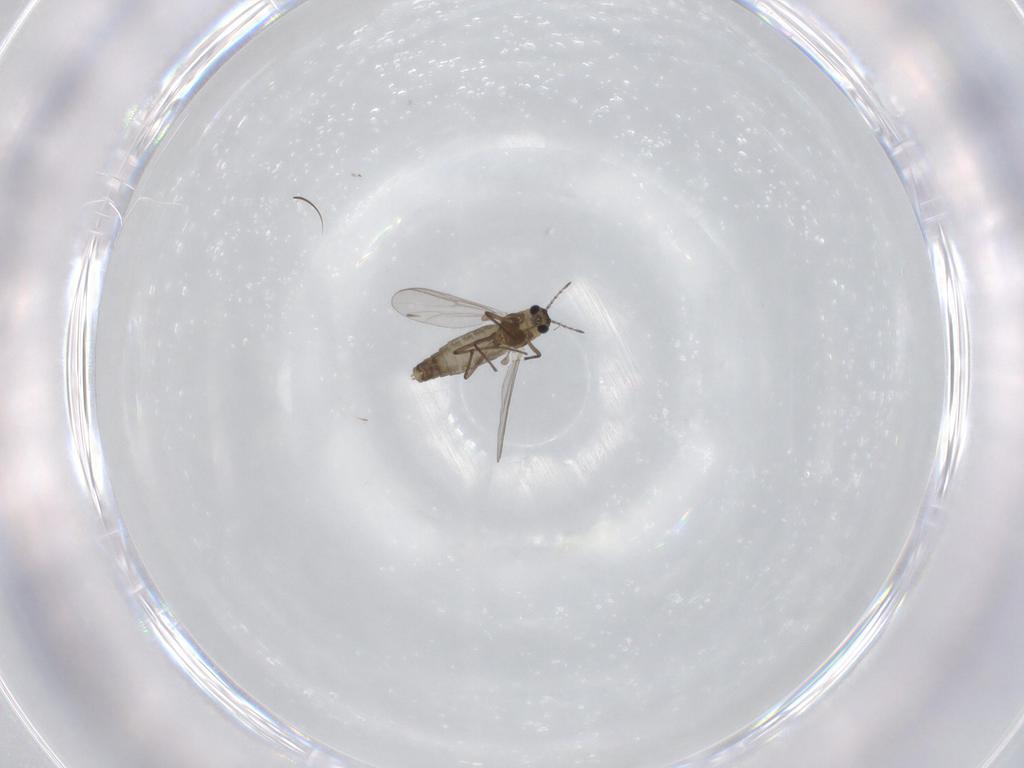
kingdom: Animalia
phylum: Arthropoda
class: Insecta
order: Diptera
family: Chironomidae
